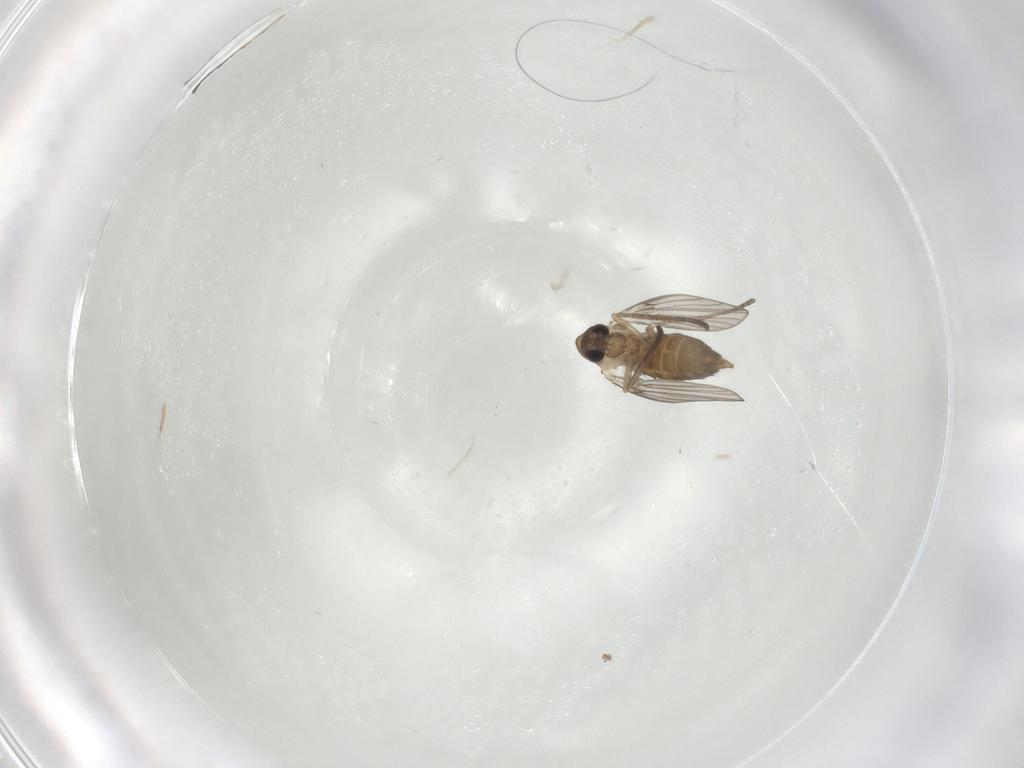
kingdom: Animalia
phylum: Arthropoda
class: Insecta
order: Diptera
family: Psychodidae
